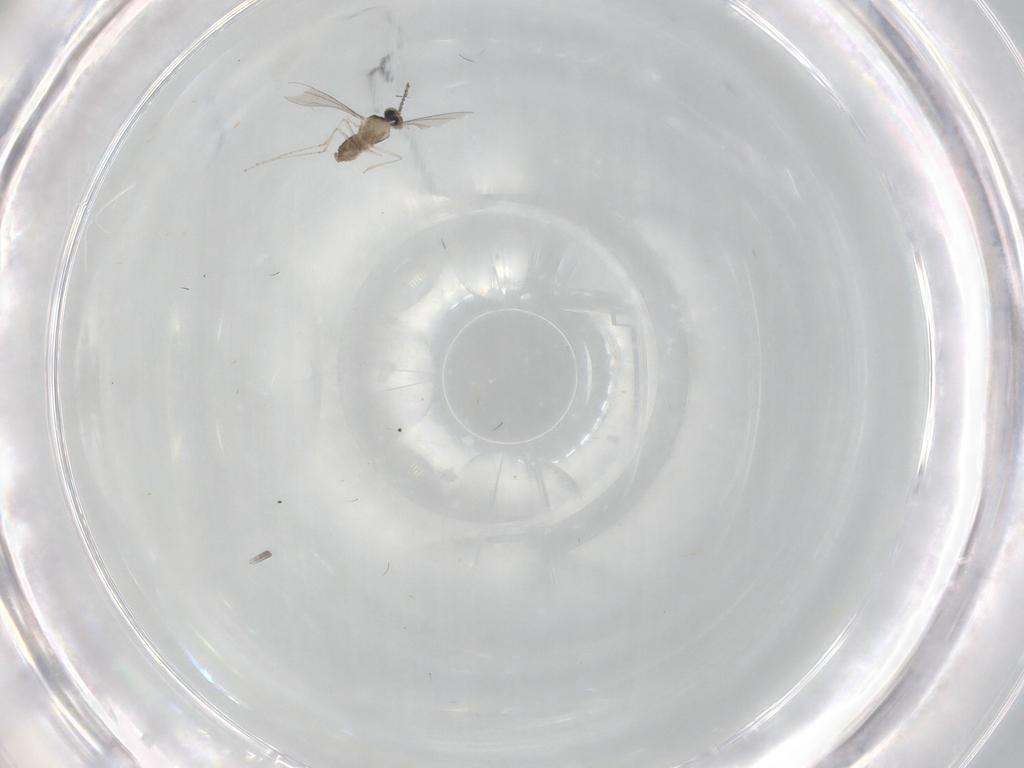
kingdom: Animalia
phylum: Arthropoda
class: Insecta
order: Diptera
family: Cecidomyiidae
